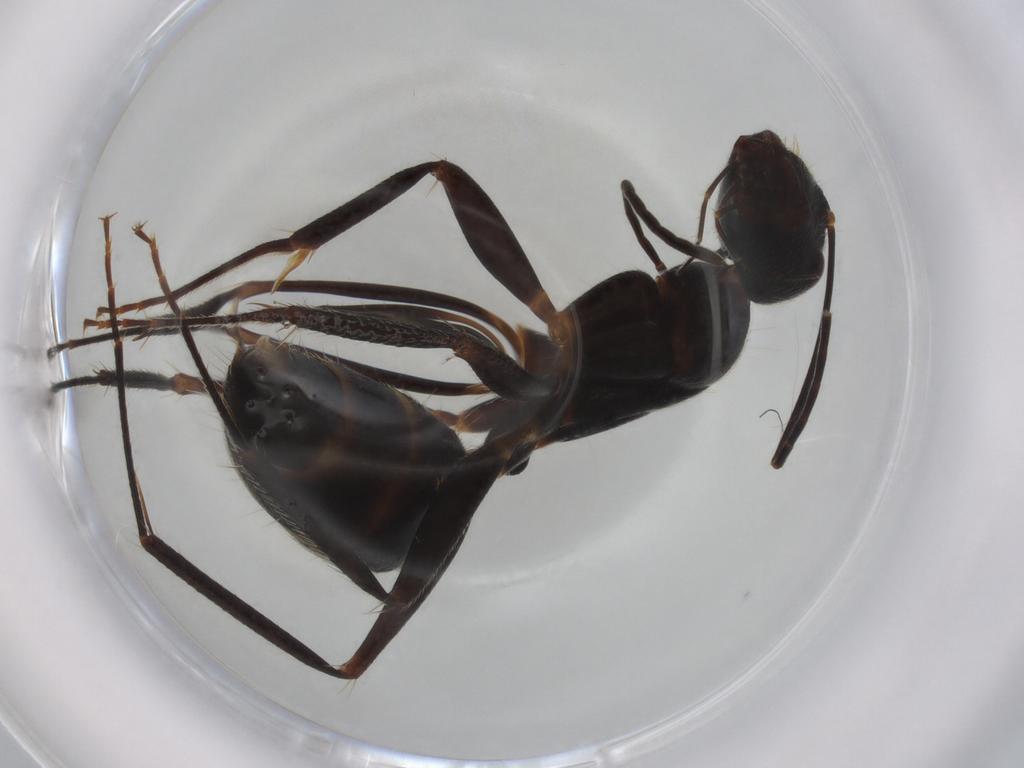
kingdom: Animalia
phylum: Arthropoda
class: Insecta
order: Hymenoptera
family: Formicidae
